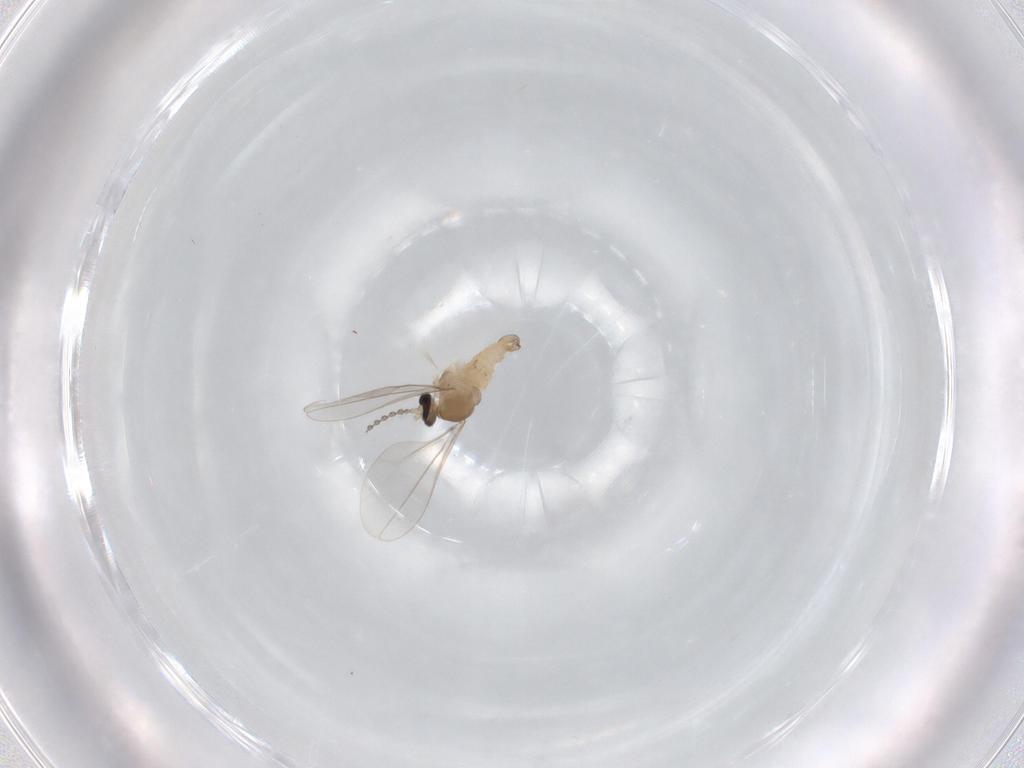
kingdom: Animalia
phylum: Arthropoda
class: Insecta
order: Diptera
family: Cecidomyiidae
